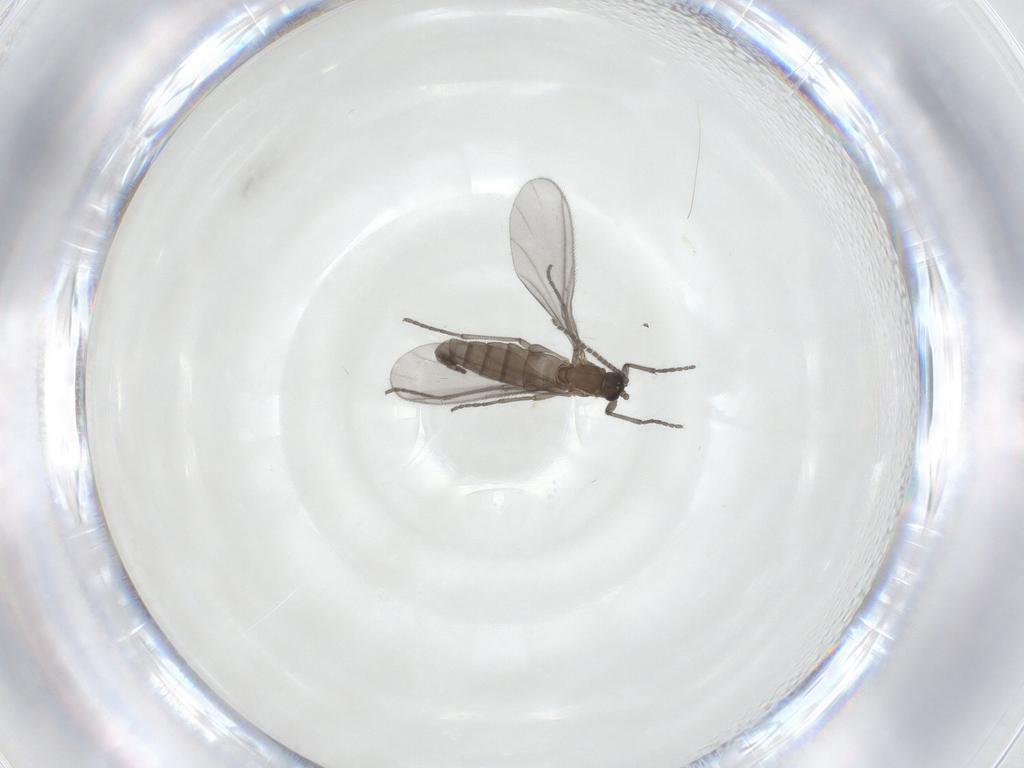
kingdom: Animalia
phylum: Arthropoda
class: Insecta
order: Diptera
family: Sciaridae
